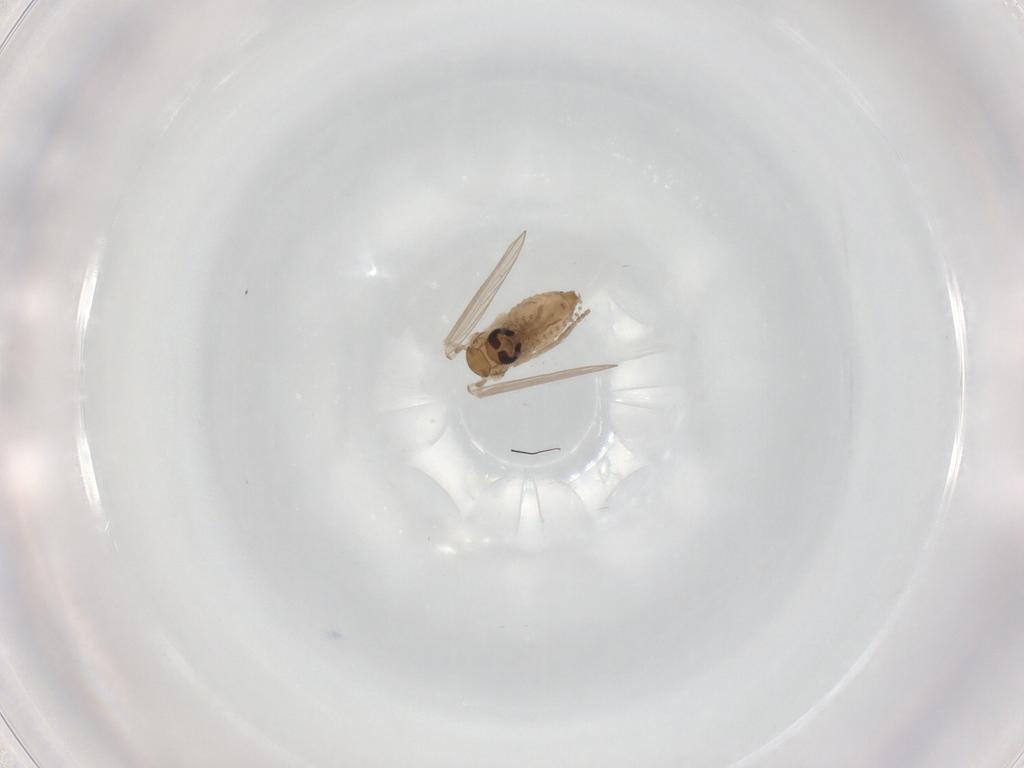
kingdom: Animalia
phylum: Arthropoda
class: Insecta
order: Diptera
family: Psychodidae
